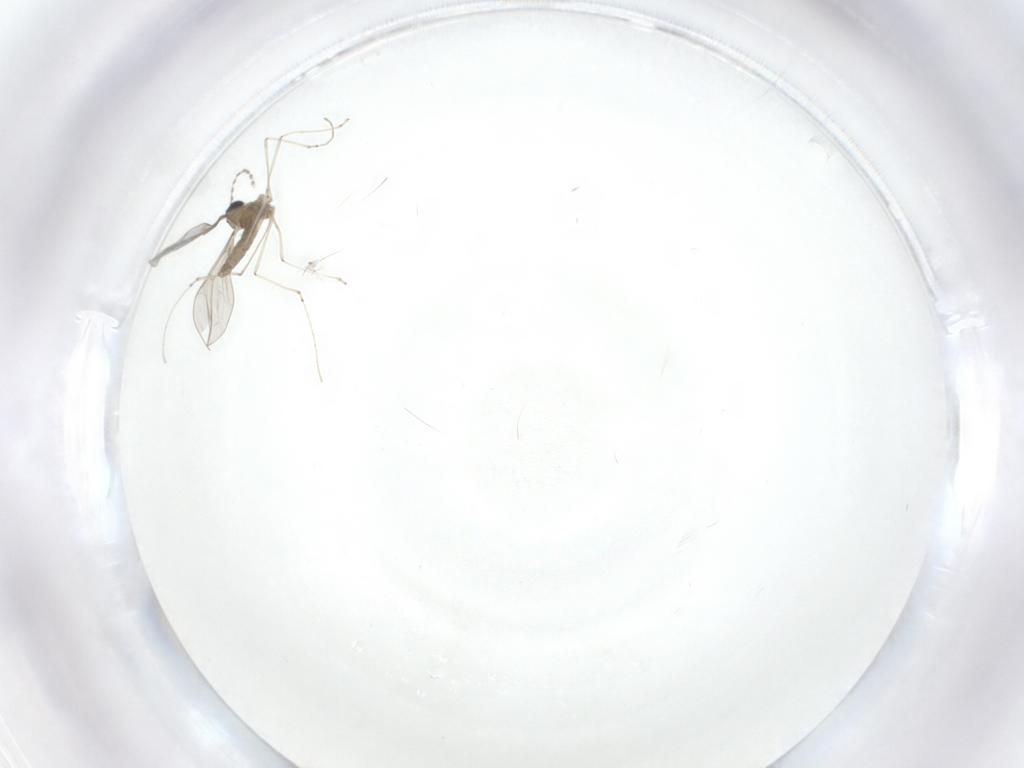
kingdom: Animalia
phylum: Arthropoda
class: Insecta
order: Diptera
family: Cecidomyiidae
